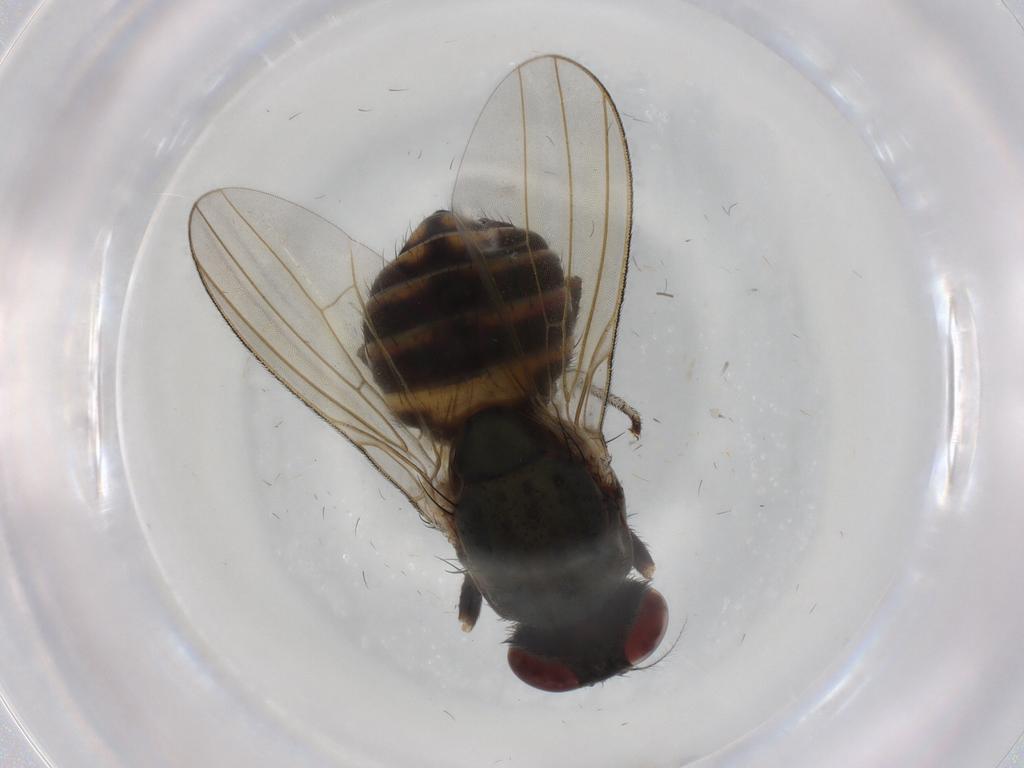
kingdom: Animalia
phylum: Arthropoda
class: Insecta
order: Diptera
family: Chironomidae
